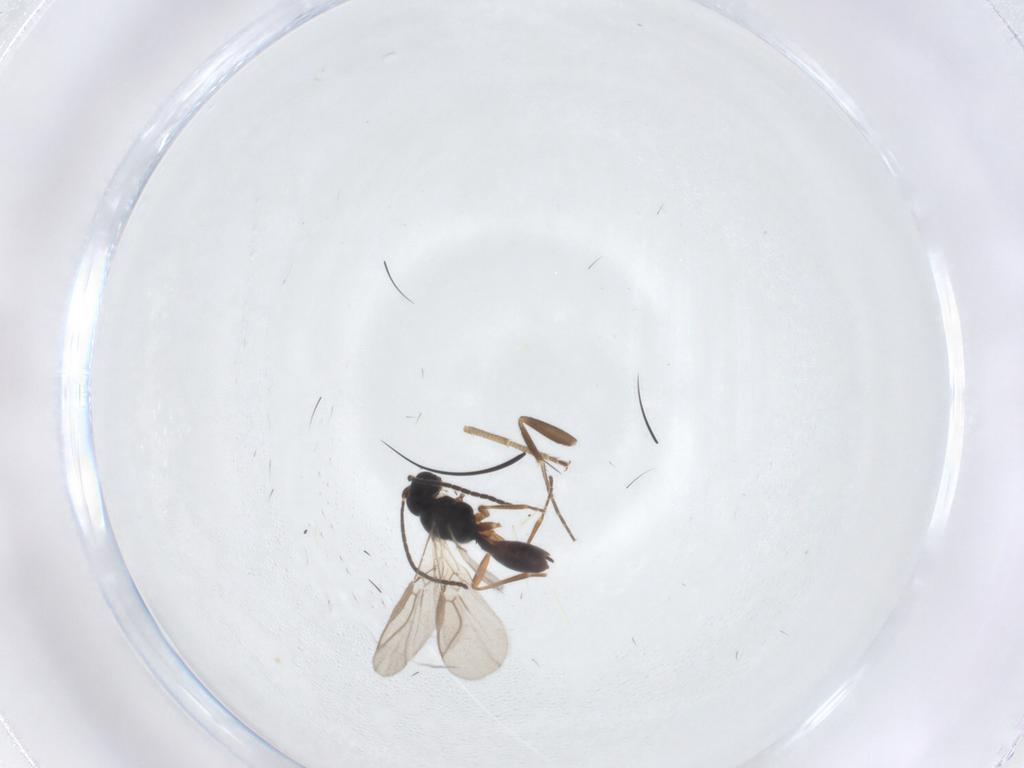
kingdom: Animalia
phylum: Arthropoda
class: Insecta
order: Hymenoptera
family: Braconidae
